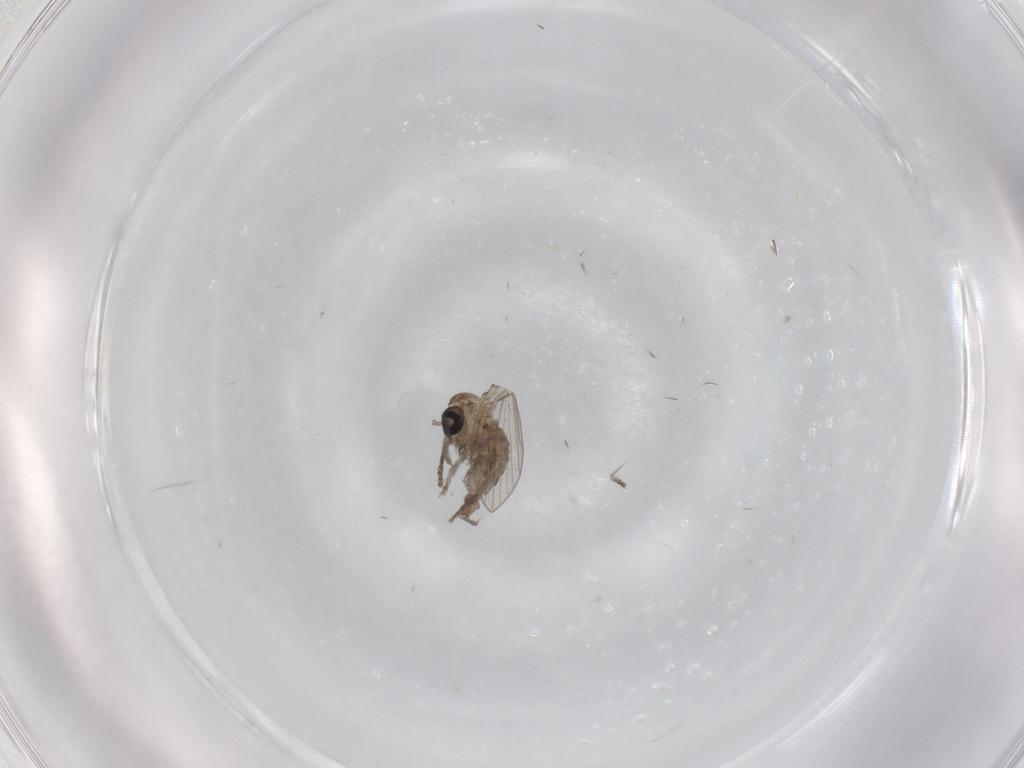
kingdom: Animalia
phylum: Arthropoda
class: Insecta
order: Diptera
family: Psychodidae
